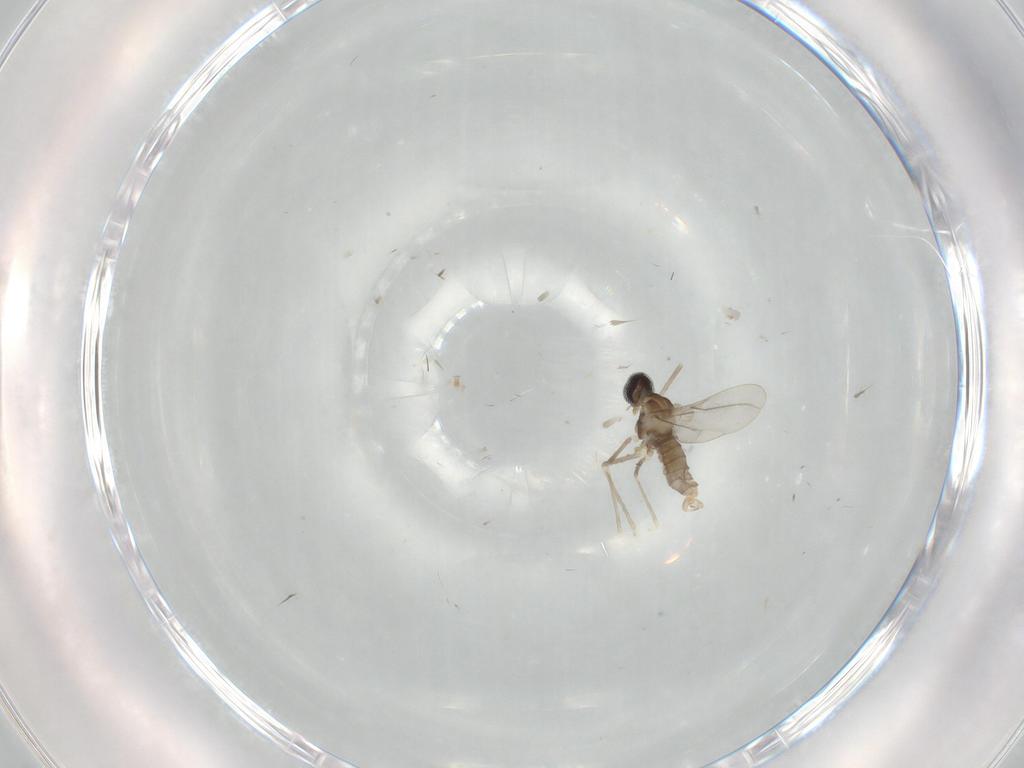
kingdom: Animalia
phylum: Arthropoda
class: Insecta
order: Diptera
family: Cecidomyiidae
